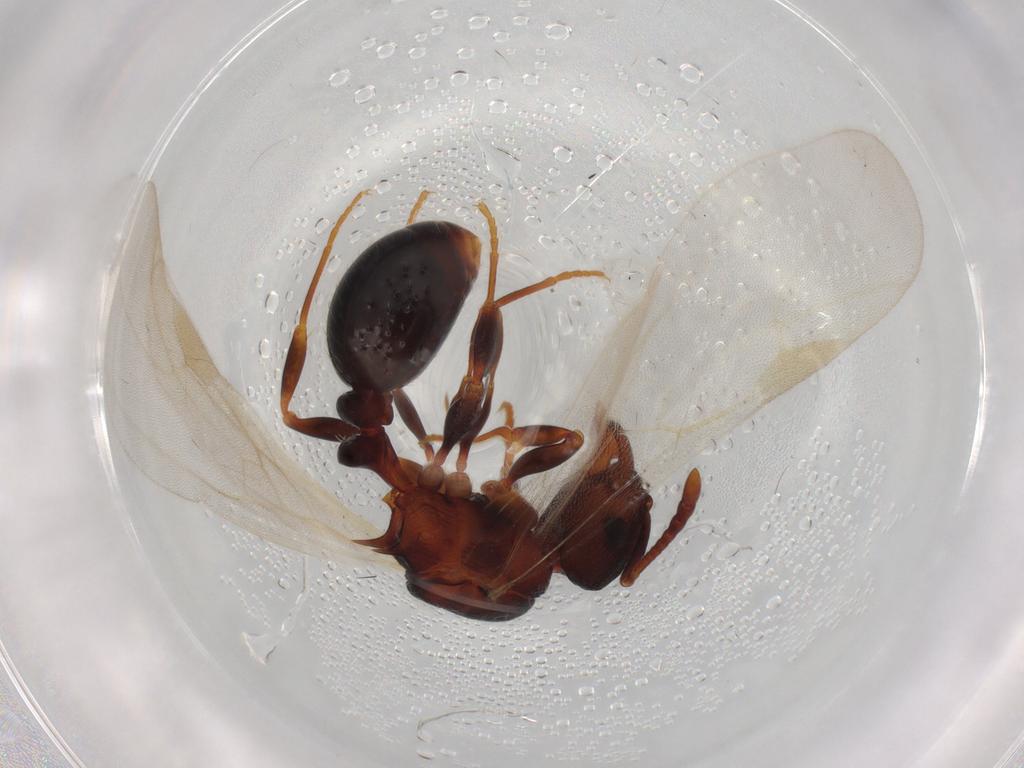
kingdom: Animalia
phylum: Arthropoda
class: Insecta
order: Hymenoptera
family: Formicidae
